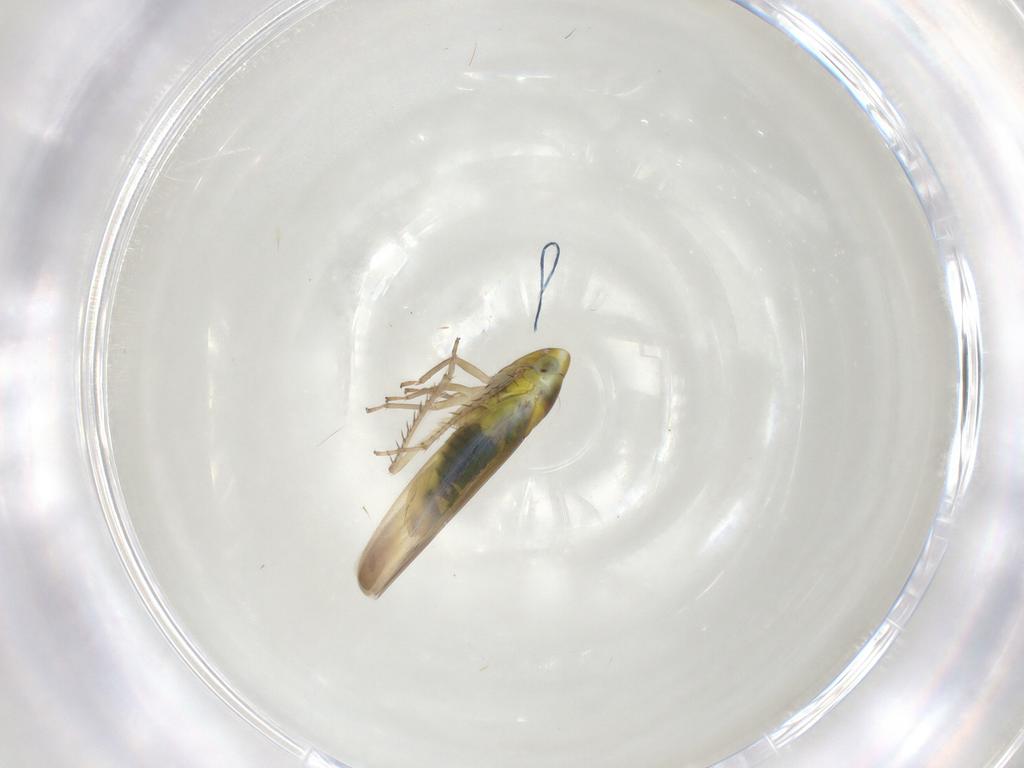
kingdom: Animalia
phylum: Arthropoda
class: Insecta
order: Hemiptera
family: Cicadellidae
